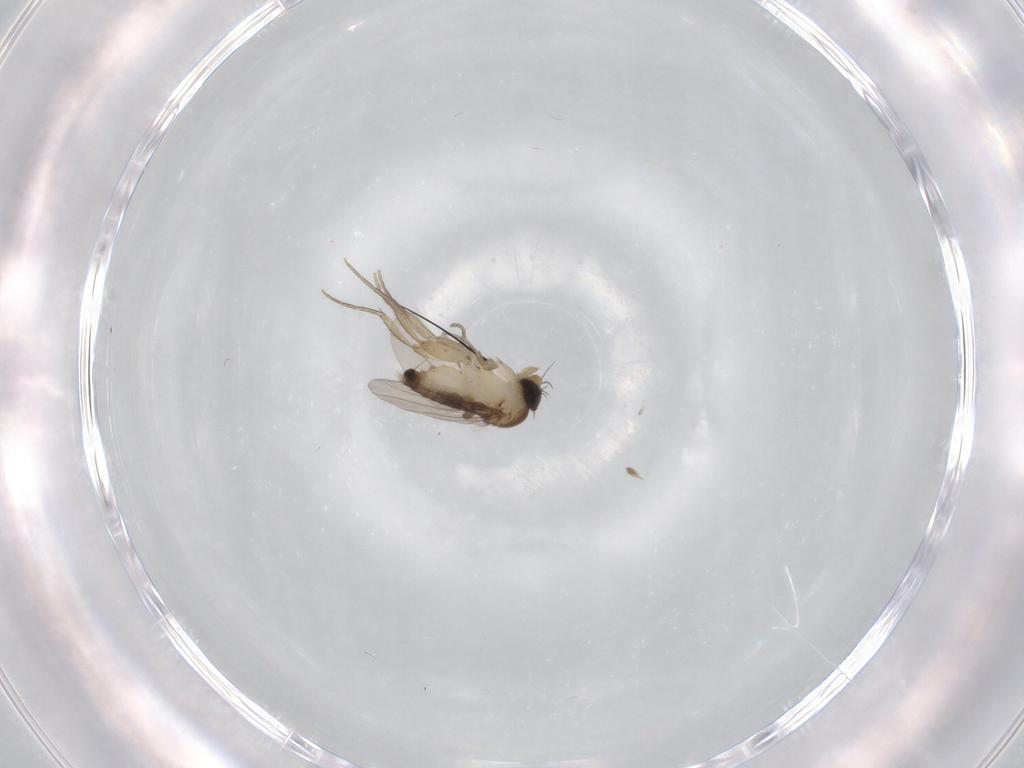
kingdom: Animalia
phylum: Arthropoda
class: Insecta
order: Diptera
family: Phoridae
